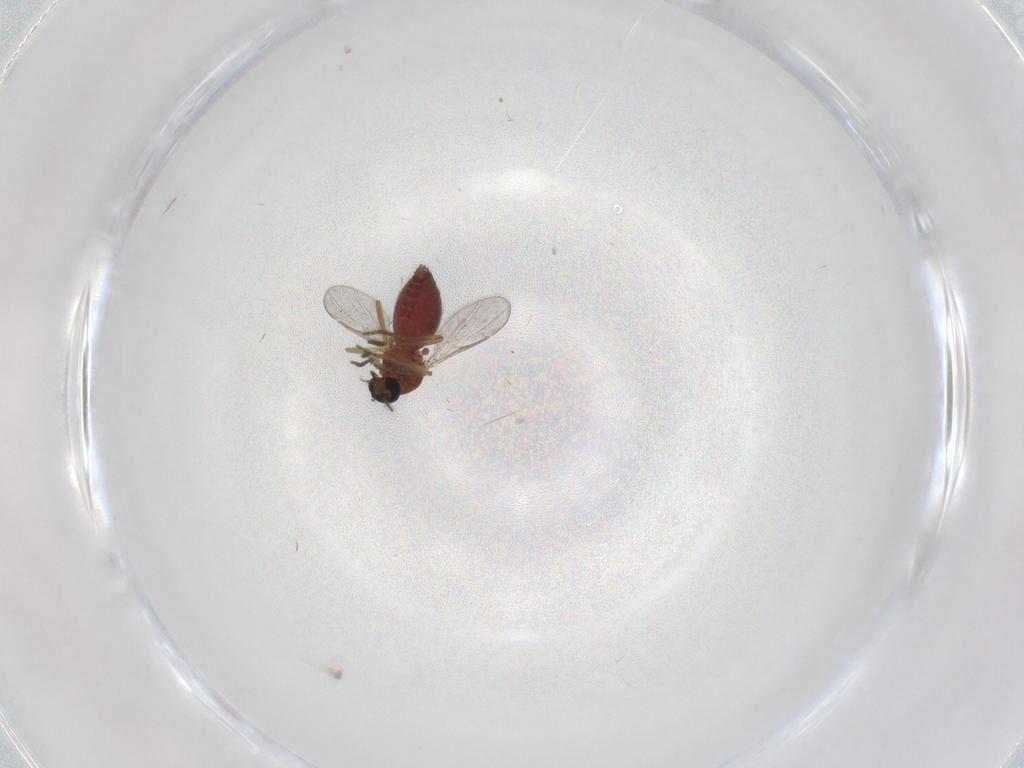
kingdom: Animalia
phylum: Arthropoda
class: Insecta
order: Diptera
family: Ceratopogonidae
